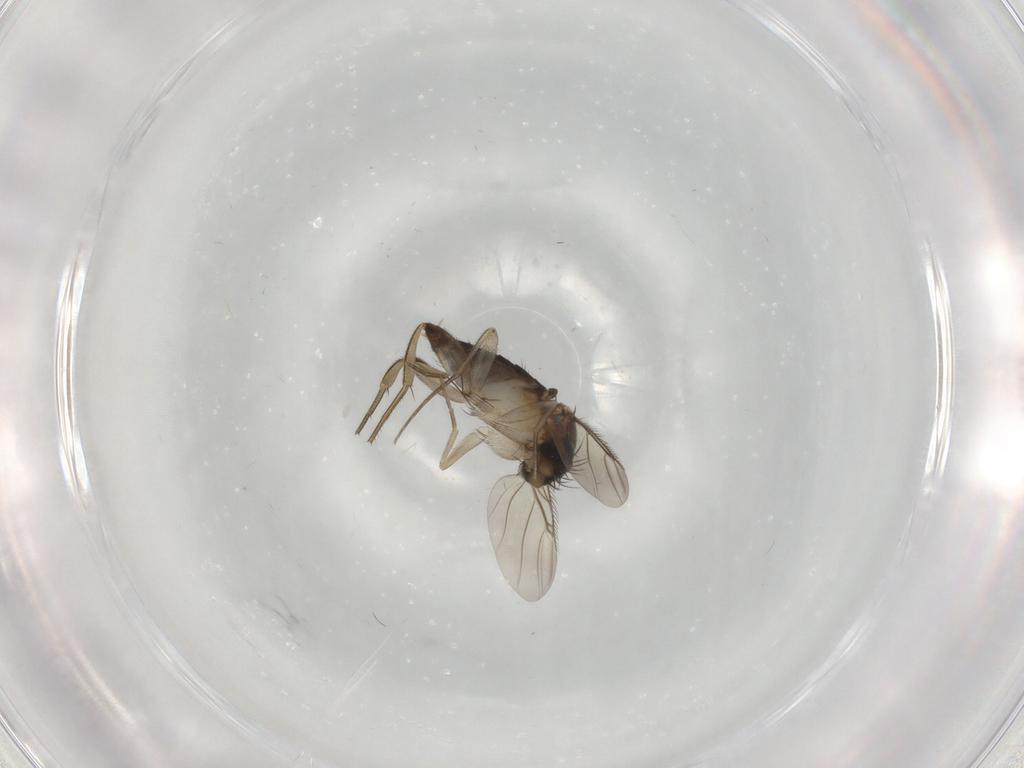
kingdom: Animalia
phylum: Arthropoda
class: Insecta
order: Diptera
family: Phoridae
